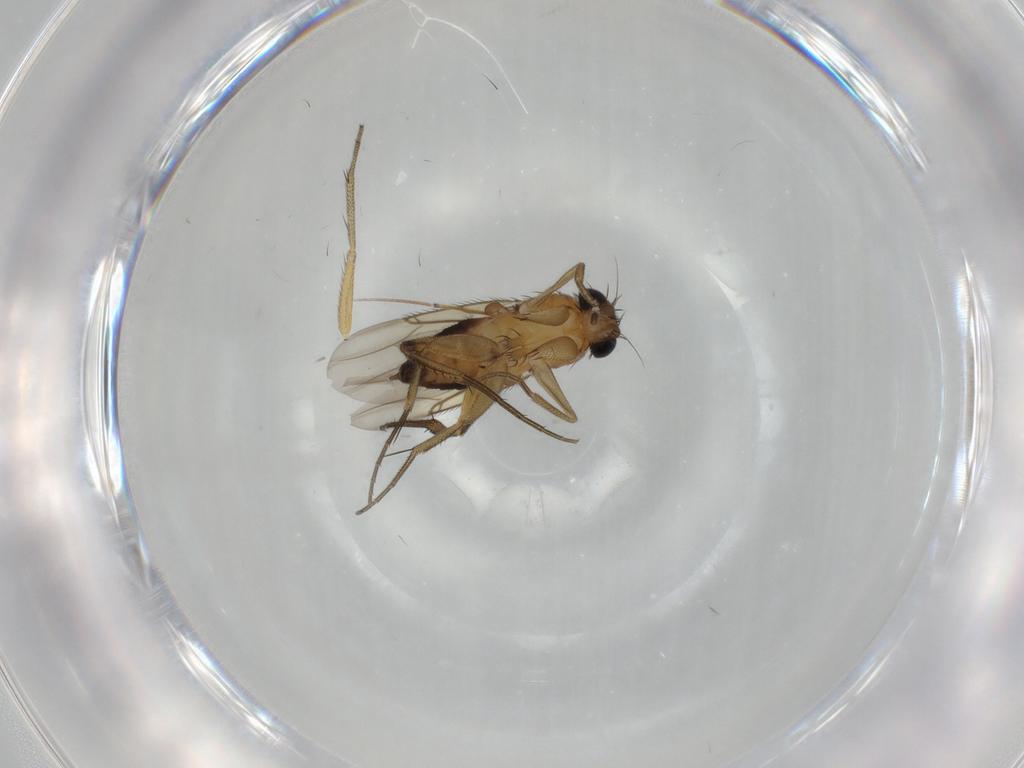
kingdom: Animalia
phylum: Arthropoda
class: Insecta
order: Diptera
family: Chironomidae
